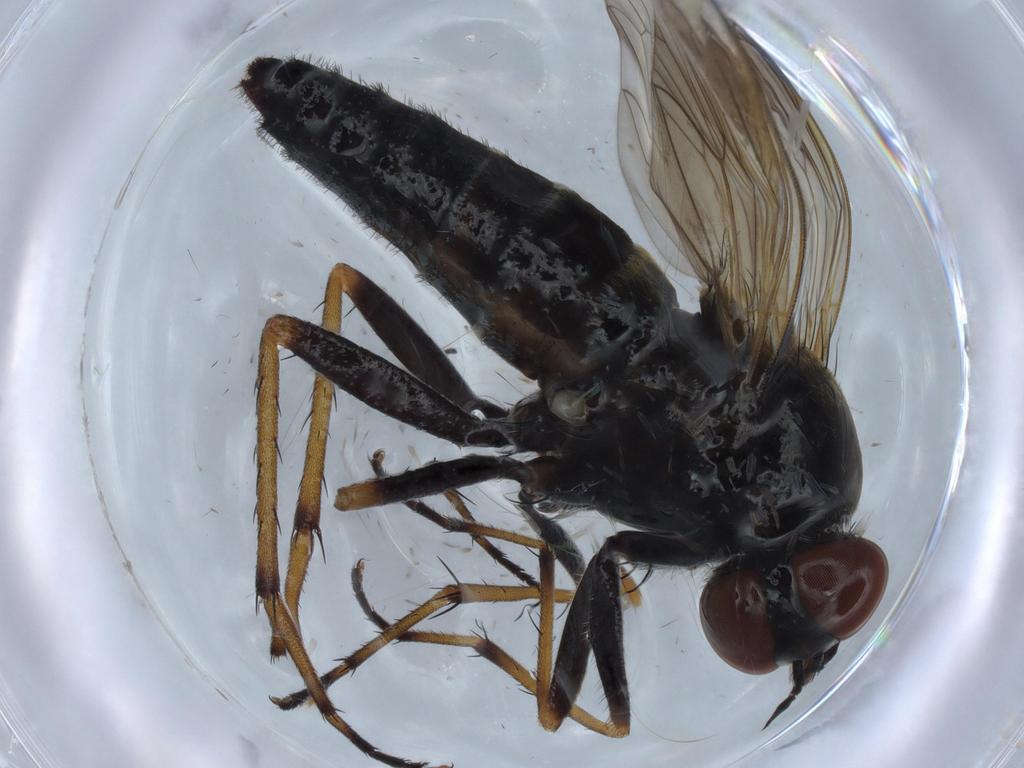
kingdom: Animalia
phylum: Arthropoda
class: Insecta
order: Diptera
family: Therevidae
